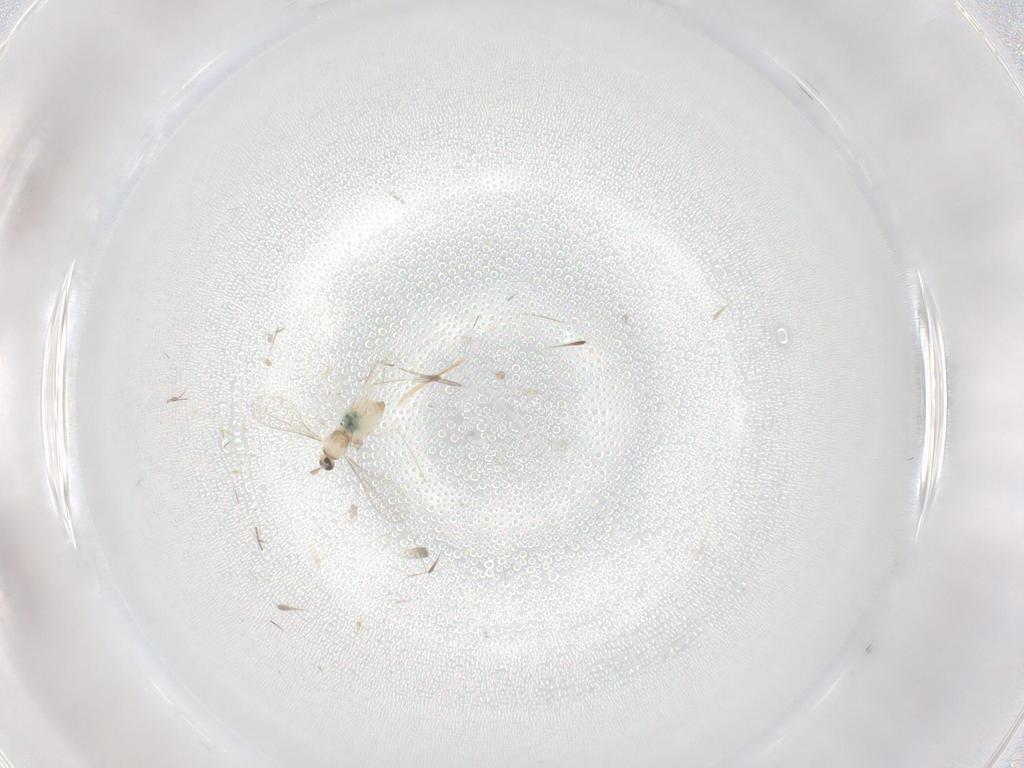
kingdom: Animalia
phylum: Arthropoda
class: Insecta
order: Diptera
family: Cecidomyiidae
